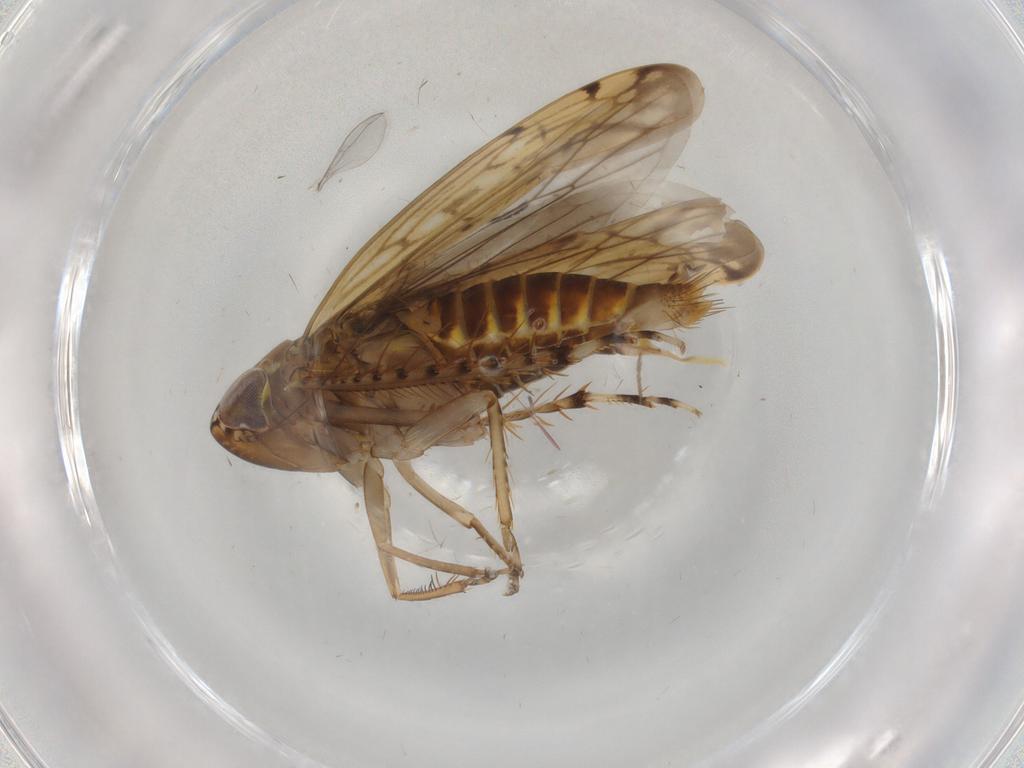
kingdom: Animalia
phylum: Arthropoda
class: Insecta
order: Hemiptera
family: Cicadellidae
